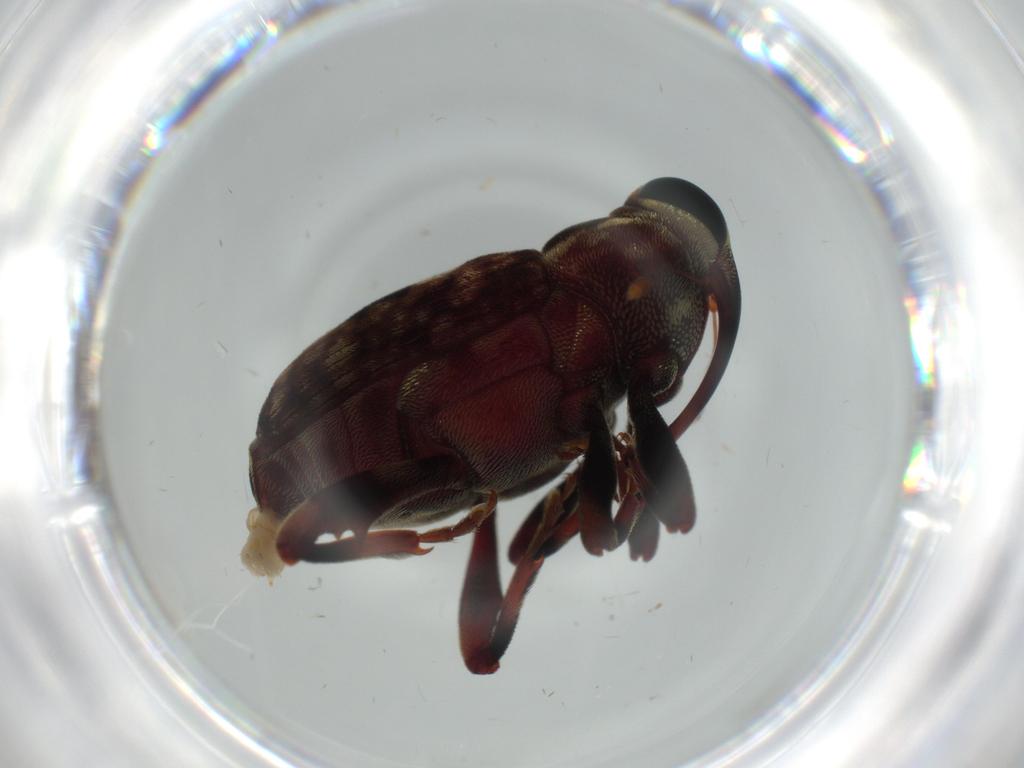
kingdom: Animalia
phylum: Arthropoda
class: Insecta
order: Coleoptera
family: Curculionidae
